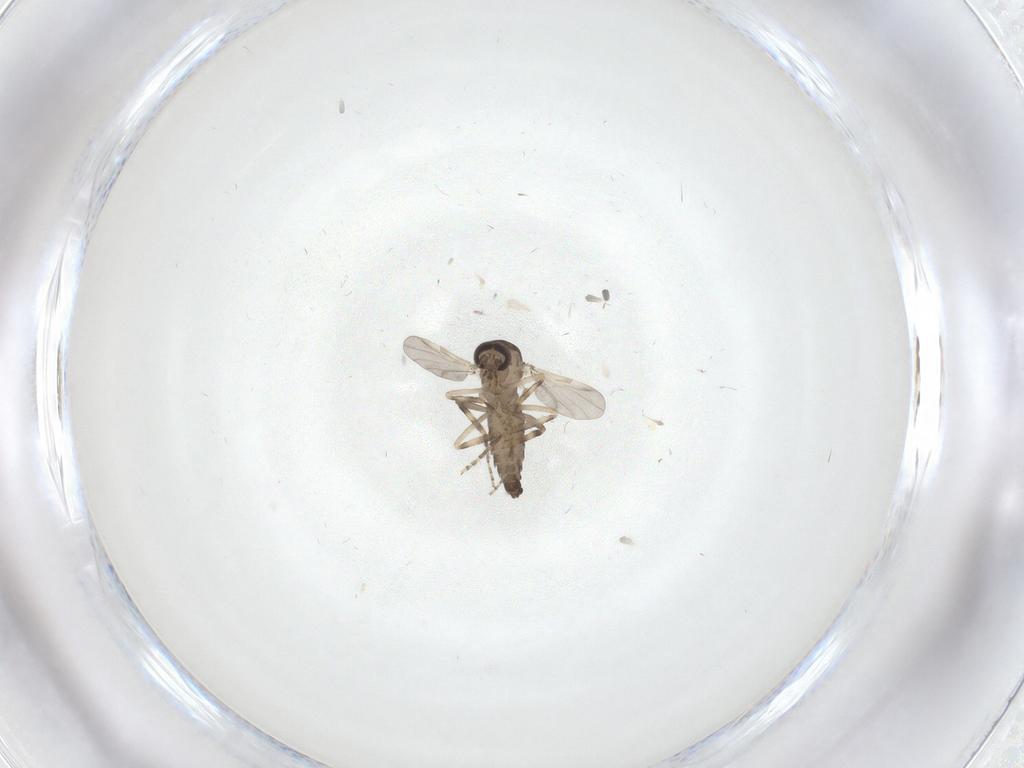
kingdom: Animalia
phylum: Arthropoda
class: Insecta
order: Diptera
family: Ceratopogonidae
